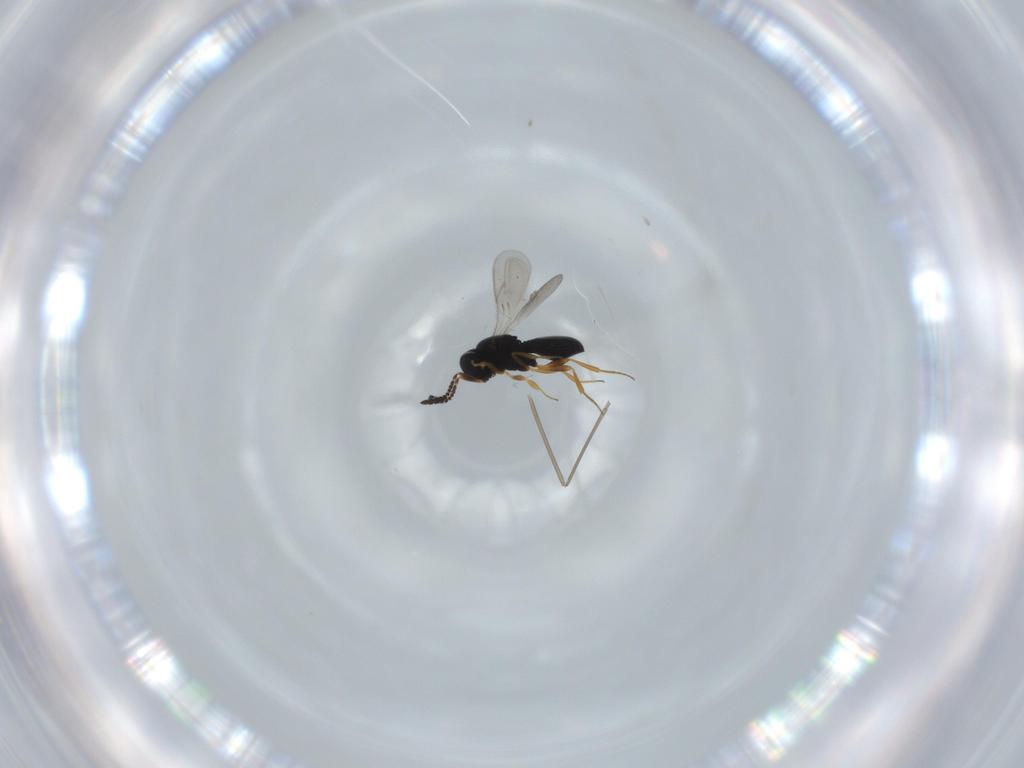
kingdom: Animalia
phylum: Arthropoda
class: Insecta
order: Hymenoptera
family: Scelionidae
